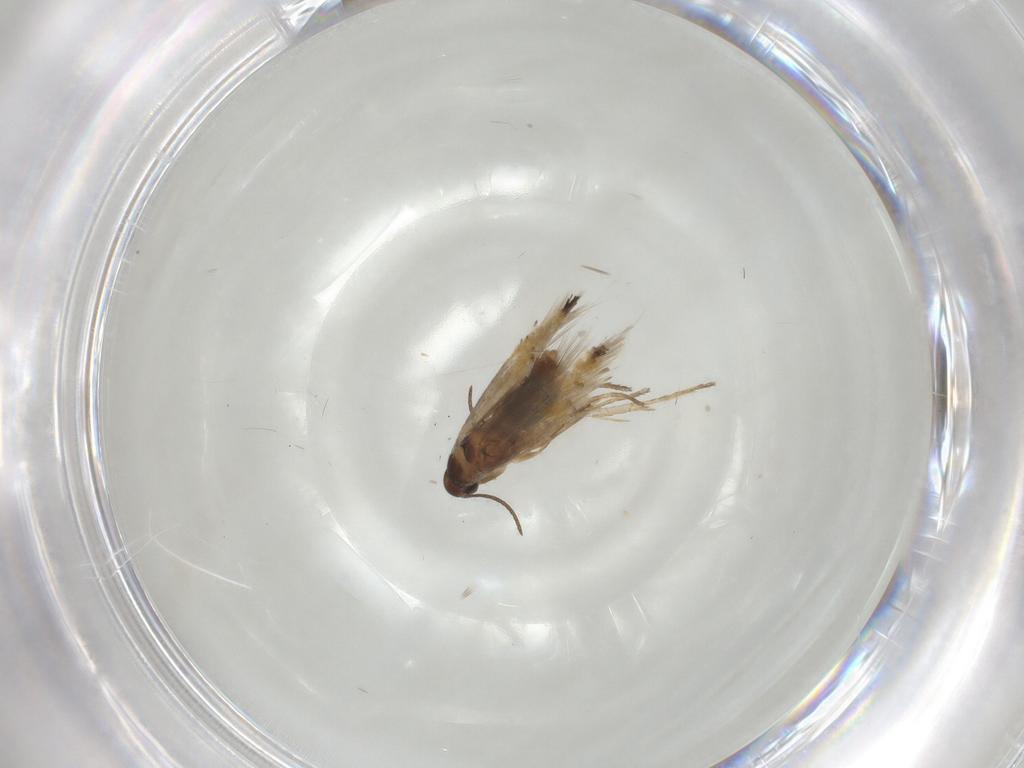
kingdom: Animalia
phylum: Arthropoda
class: Insecta
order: Lepidoptera
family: Heliozelidae
